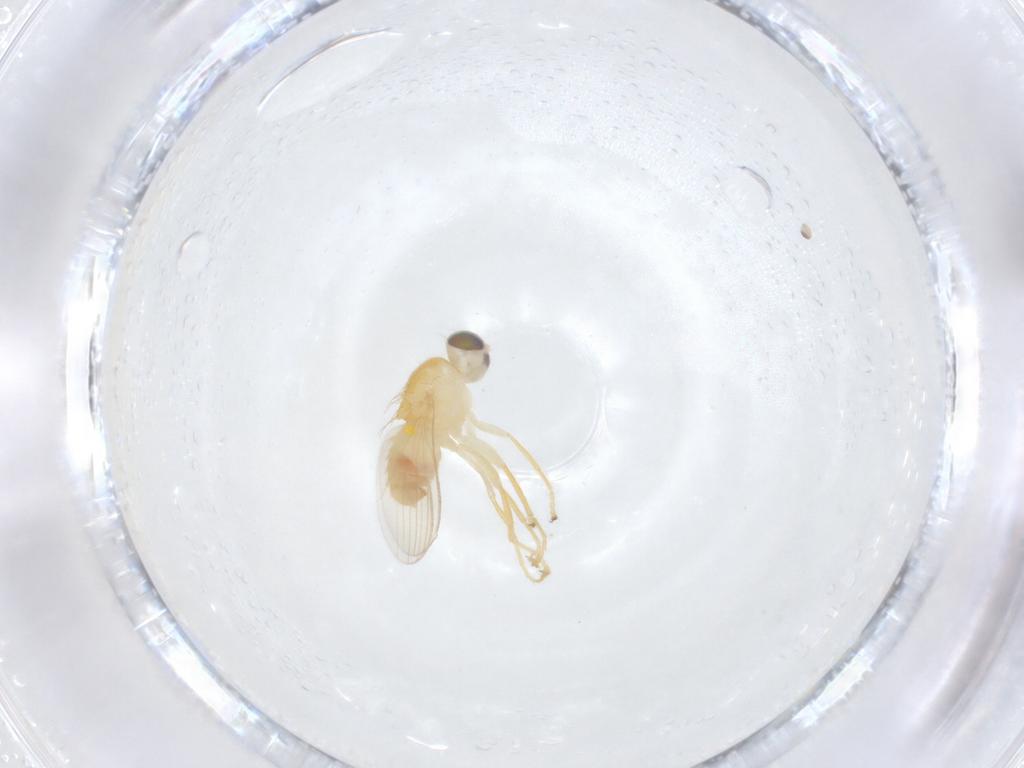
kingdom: Animalia
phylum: Arthropoda
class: Insecta
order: Diptera
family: Chyromyidae
